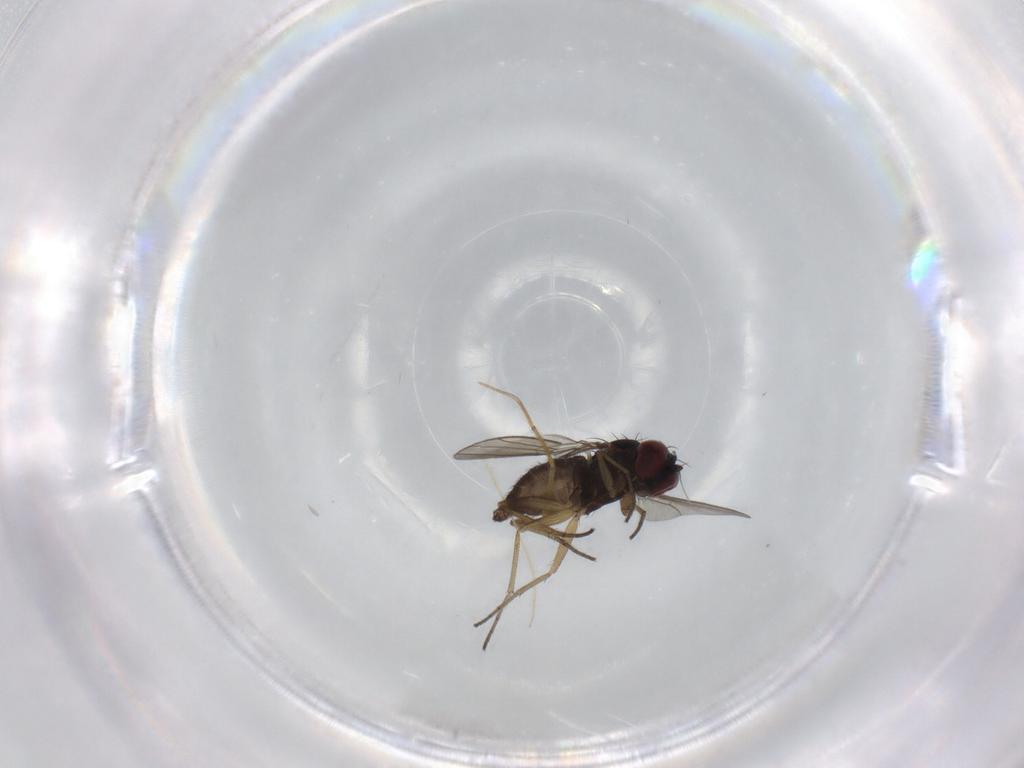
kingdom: Animalia
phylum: Arthropoda
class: Insecta
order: Diptera
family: Dolichopodidae
